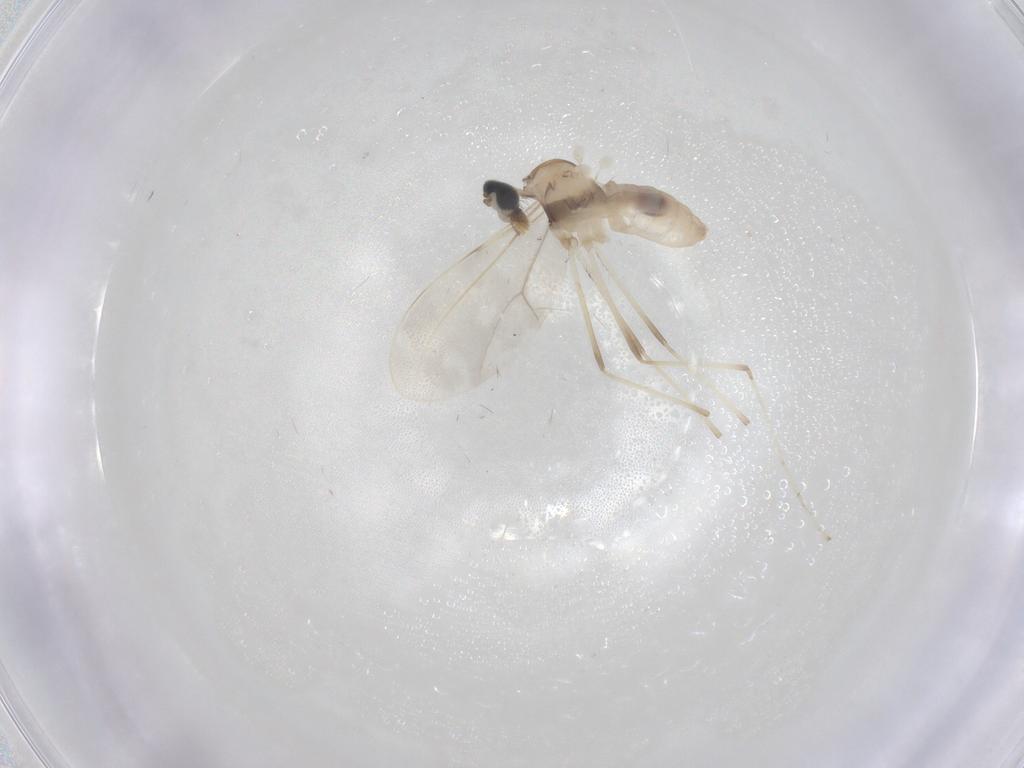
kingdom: Animalia
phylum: Arthropoda
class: Insecta
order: Diptera
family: Cecidomyiidae
